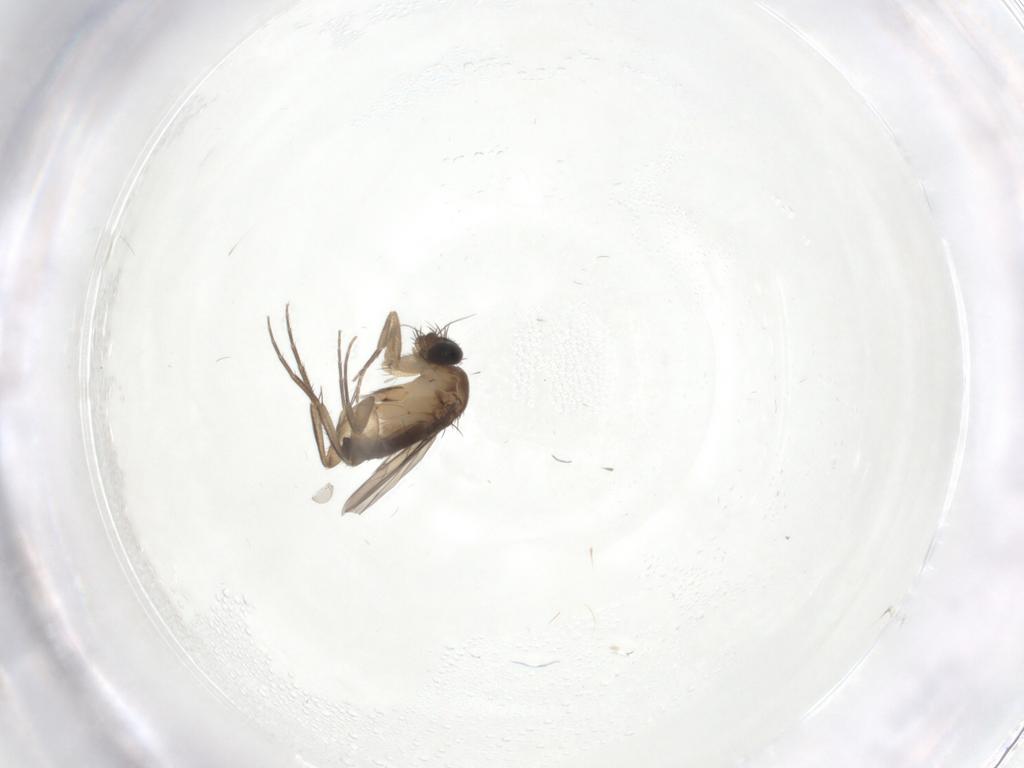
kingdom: Animalia
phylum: Arthropoda
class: Insecta
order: Diptera
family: Phoridae
